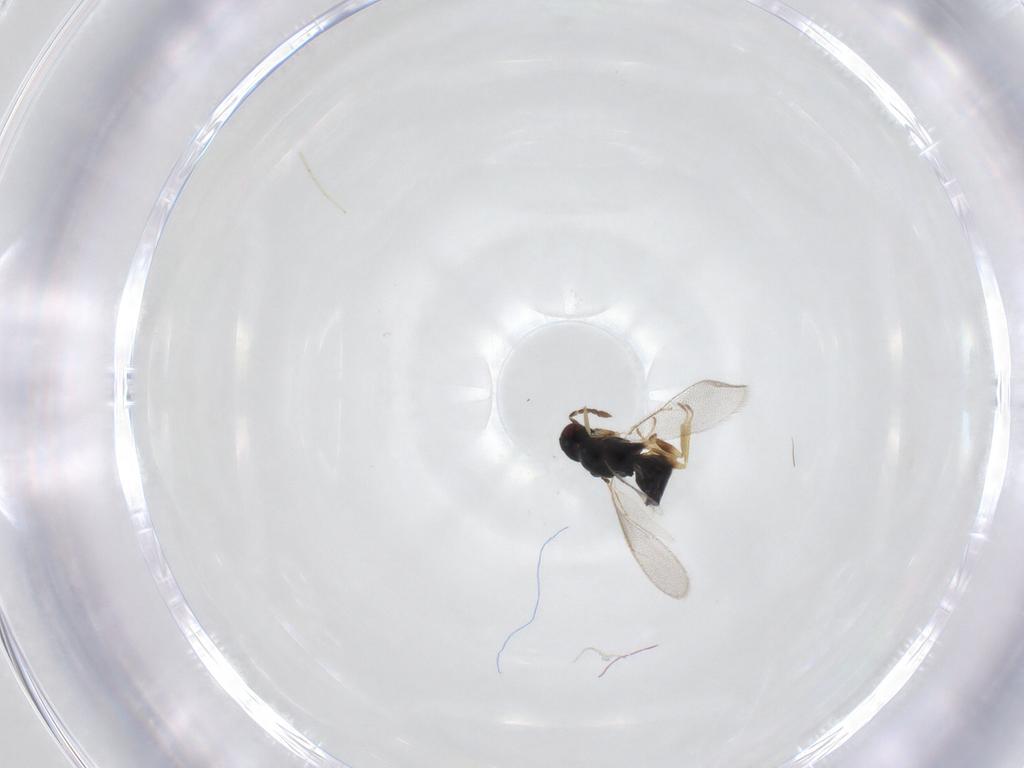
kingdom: Animalia
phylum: Arthropoda
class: Insecta
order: Hymenoptera
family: Eulophidae
